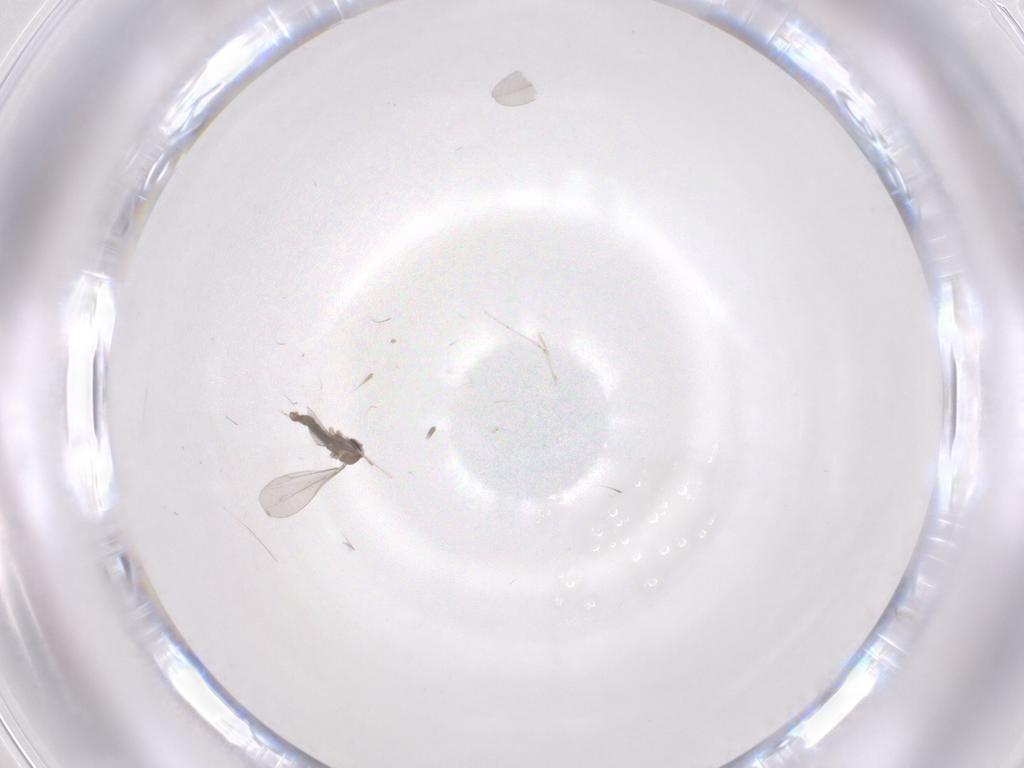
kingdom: Animalia
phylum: Arthropoda
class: Insecta
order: Diptera
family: Cecidomyiidae
